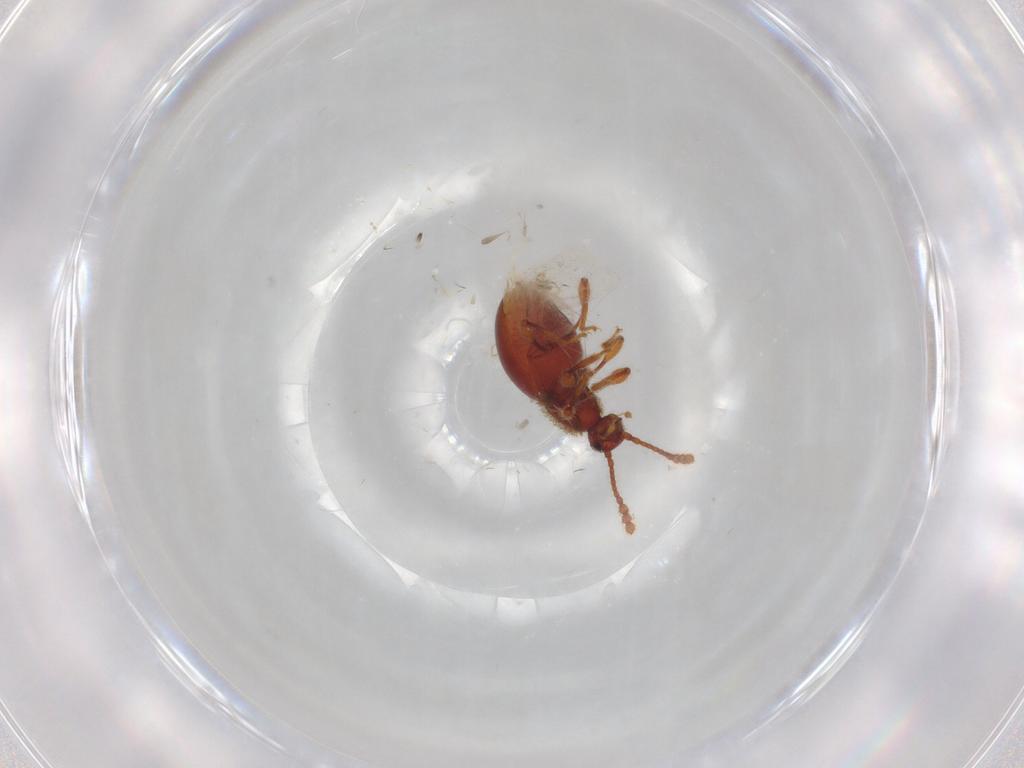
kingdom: Animalia
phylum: Arthropoda
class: Insecta
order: Coleoptera
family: Staphylinidae
